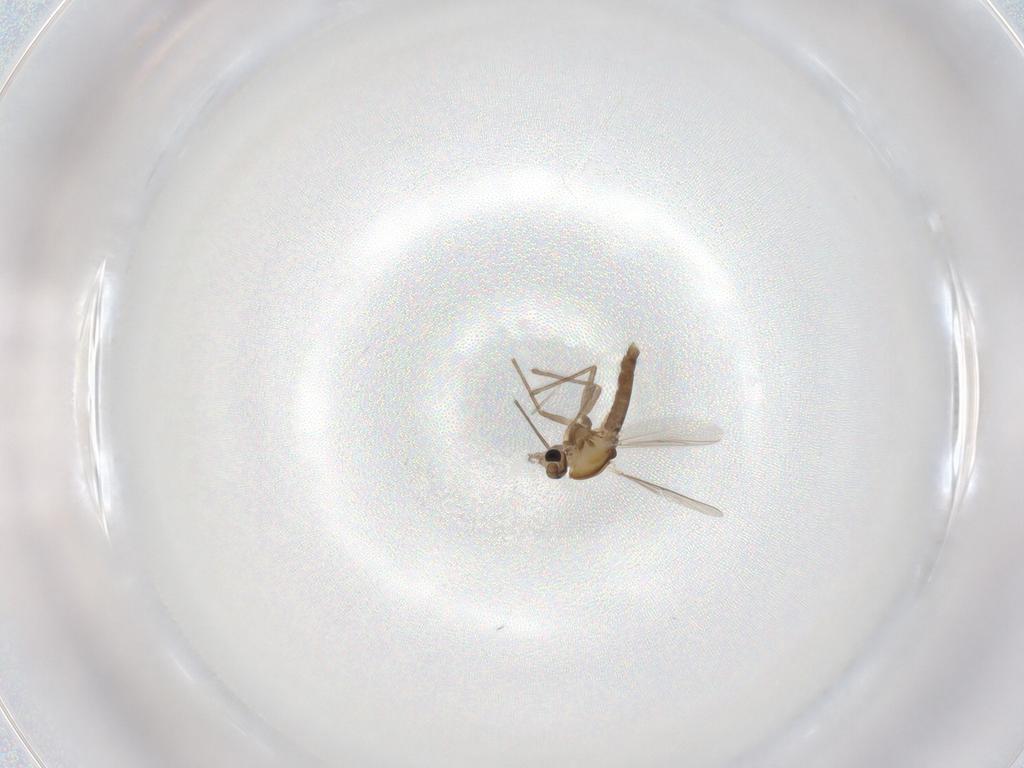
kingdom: Animalia
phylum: Arthropoda
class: Insecta
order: Diptera
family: Chironomidae
